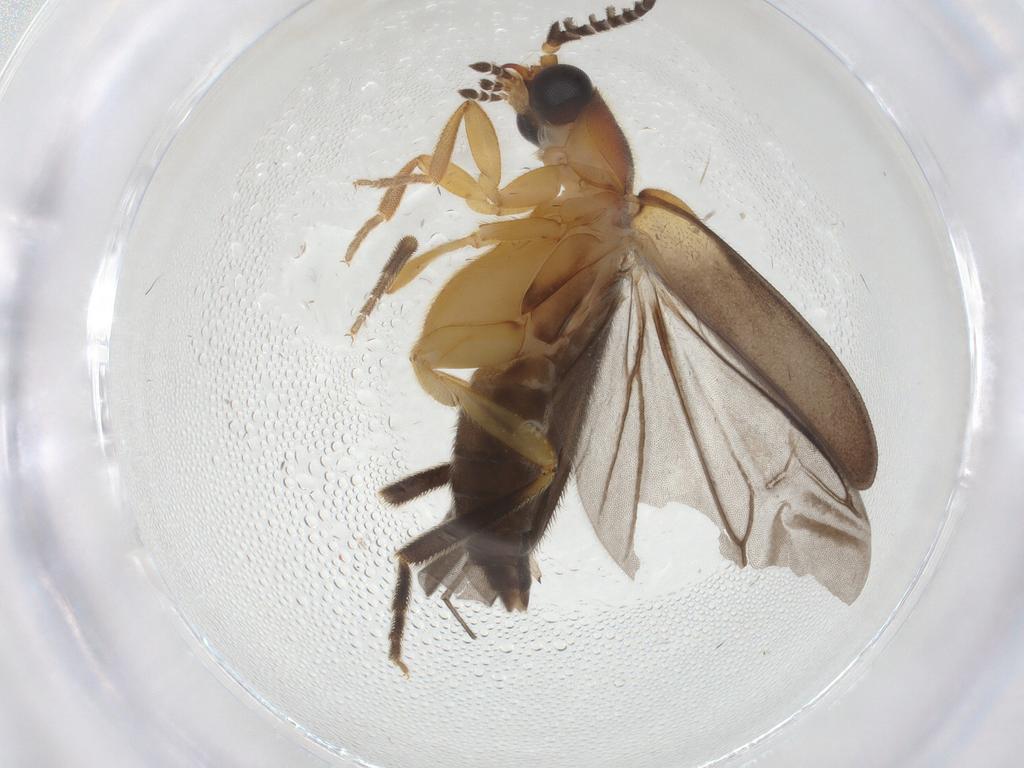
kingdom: Animalia
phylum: Arthropoda
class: Insecta
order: Coleoptera
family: Lampyridae
